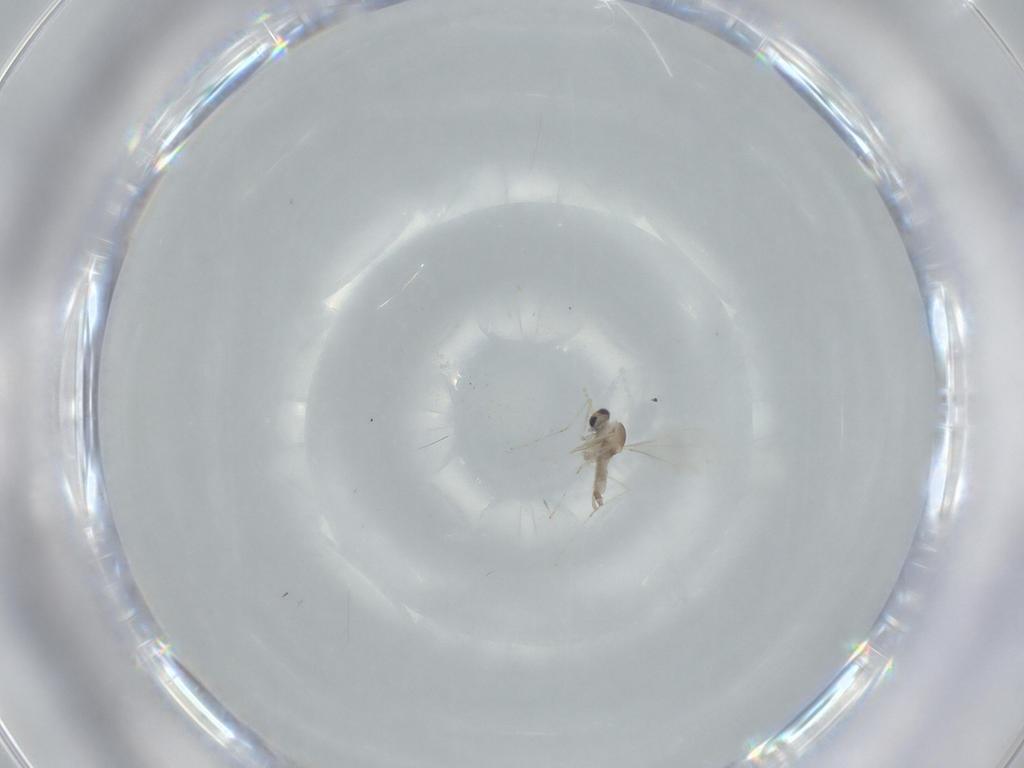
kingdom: Animalia
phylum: Arthropoda
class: Insecta
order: Diptera
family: Cecidomyiidae
